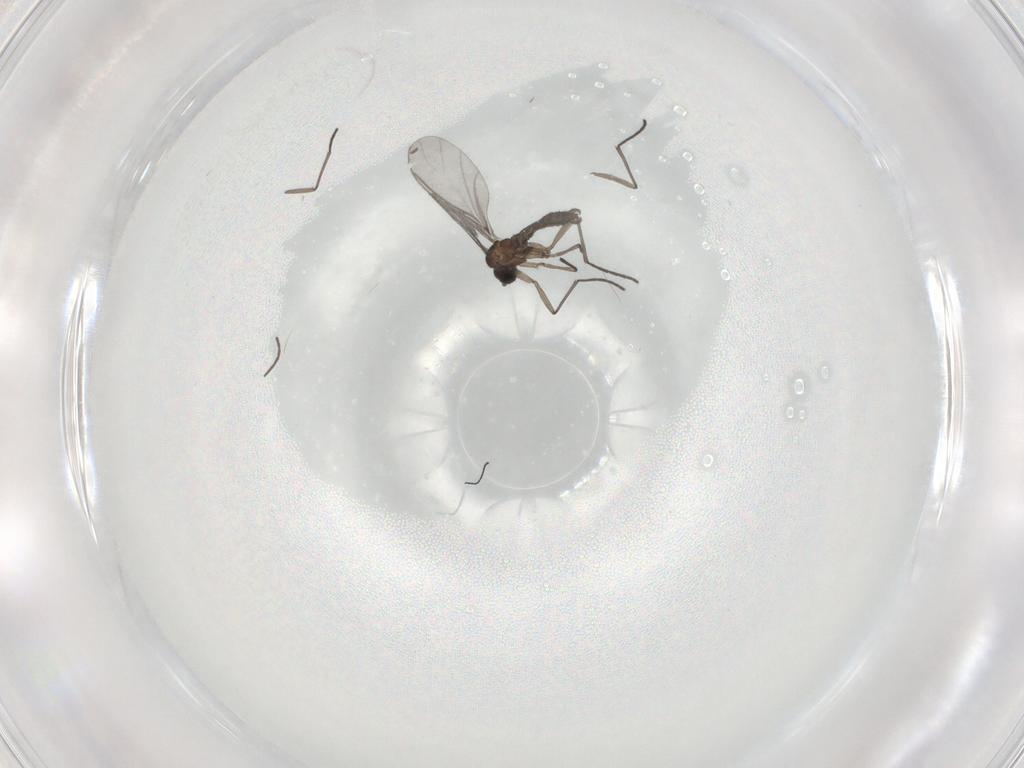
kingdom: Animalia
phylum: Arthropoda
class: Insecta
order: Diptera
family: Sciaridae
